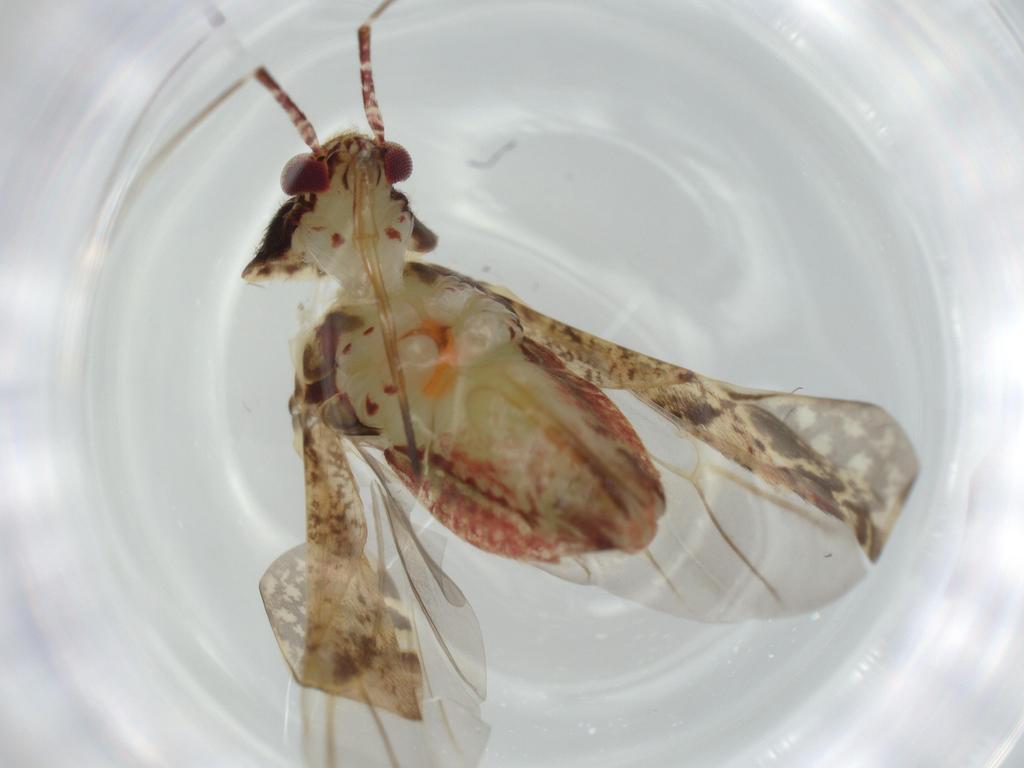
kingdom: Animalia
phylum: Arthropoda
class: Insecta
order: Hemiptera
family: Miridae
